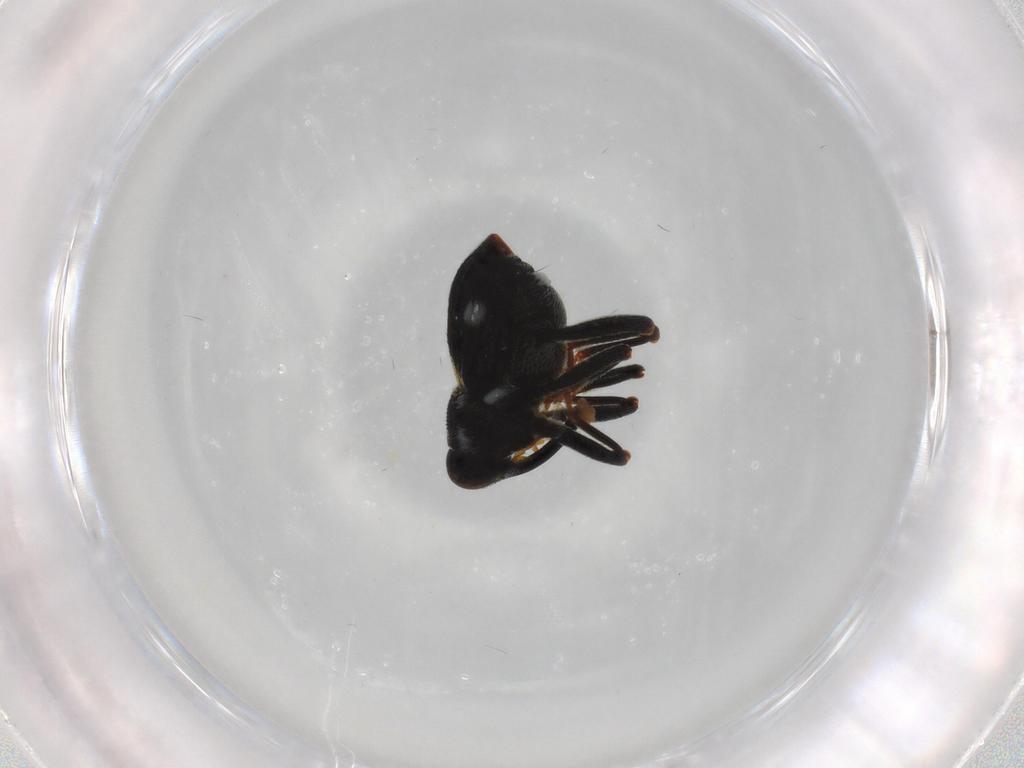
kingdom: Animalia
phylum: Arthropoda
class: Insecta
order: Coleoptera
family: Curculionidae
